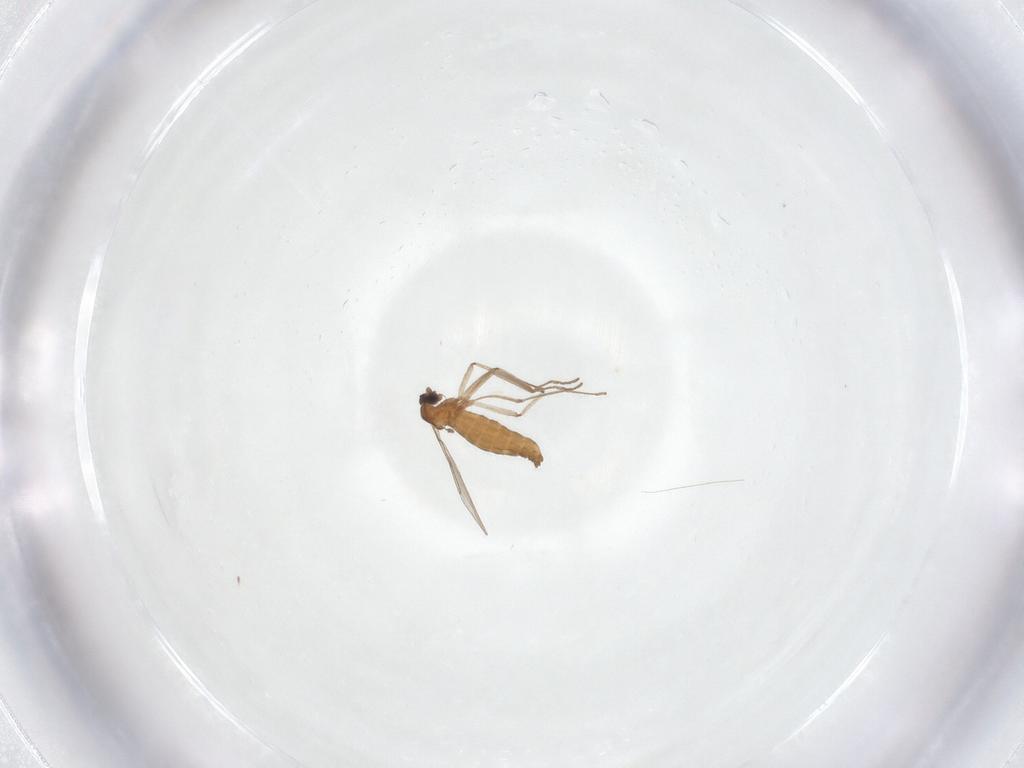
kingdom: Animalia
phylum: Arthropoda
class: Insecta
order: Diptera
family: Cecidomyiidae
